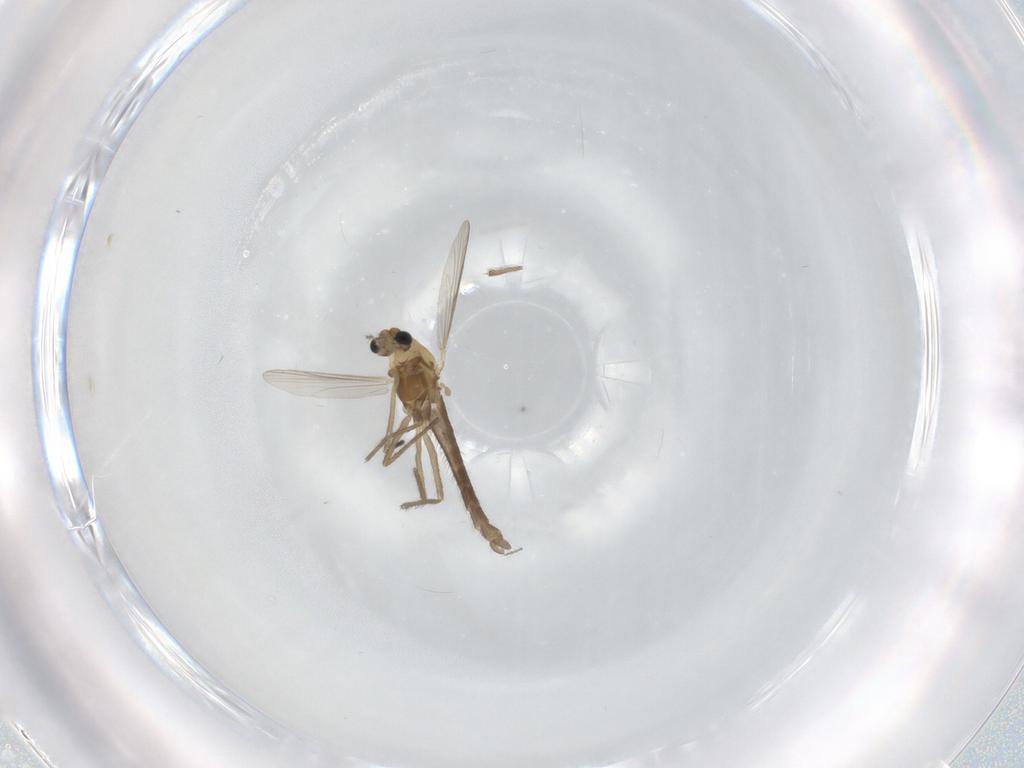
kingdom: Animalia
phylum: Arthropoda
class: Insecta
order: Diptera
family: Chironomidae
